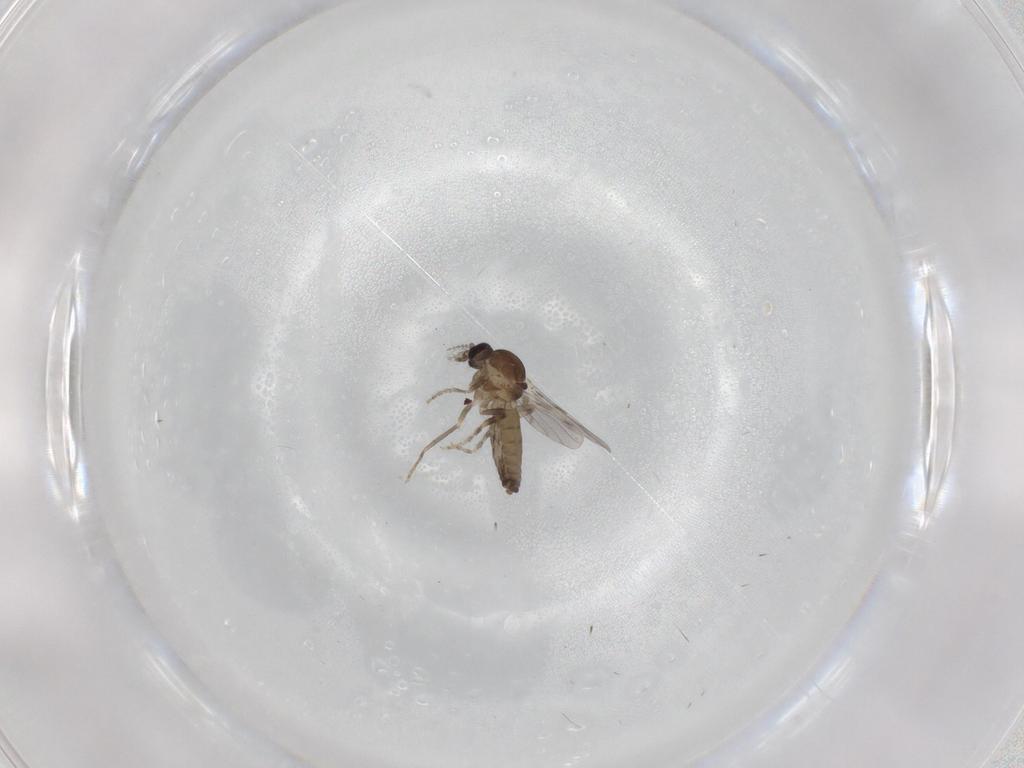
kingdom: Animalia
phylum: Arthropoda
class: Insecta
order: Diptera
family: Ceratopogonidae
